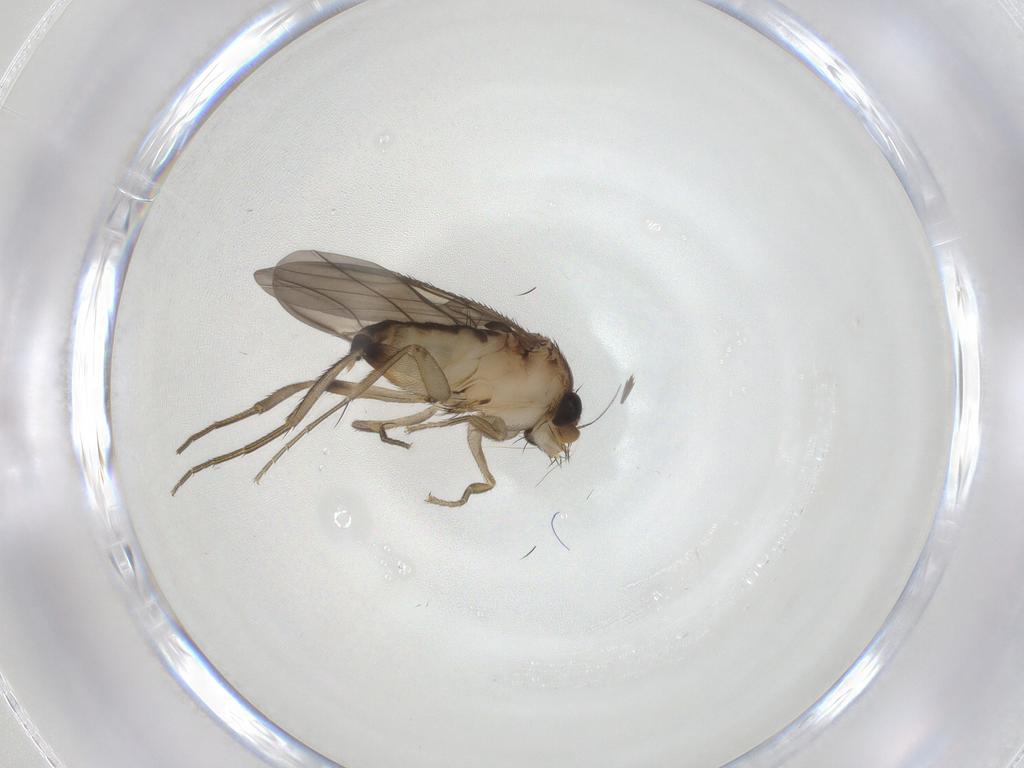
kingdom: Animalia
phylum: Arthropoda
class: Insecta
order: Diptera
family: Phoridae
